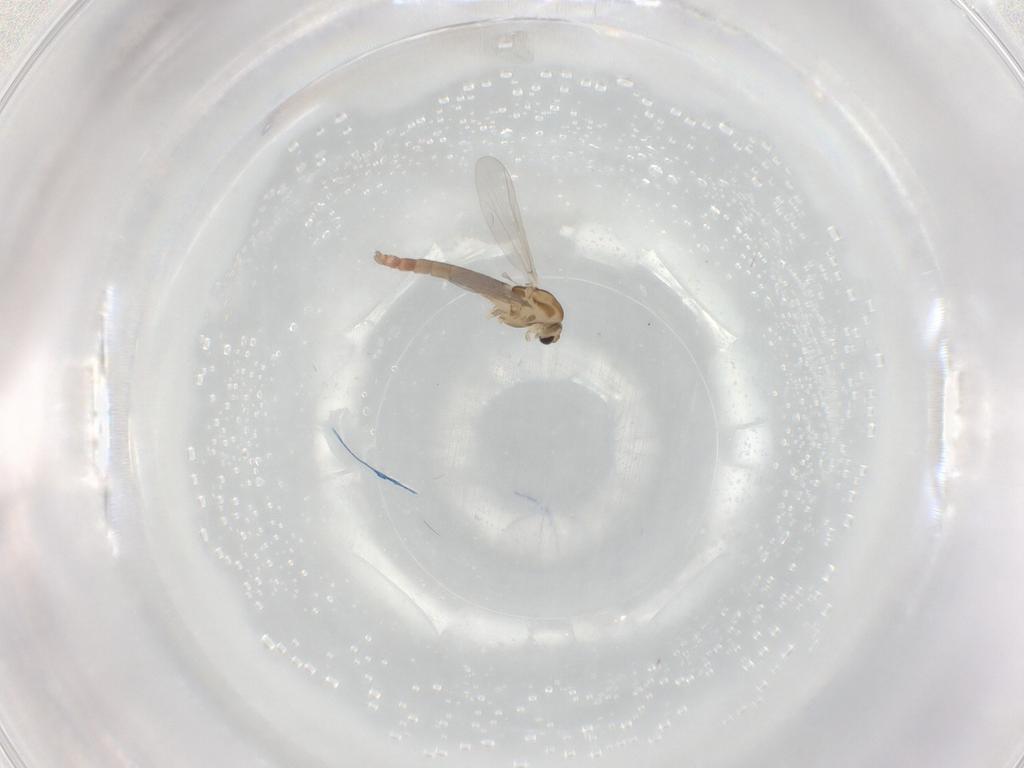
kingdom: Animalia
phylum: Arthropoda
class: Insecta
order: Diptera
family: Chironomidae
